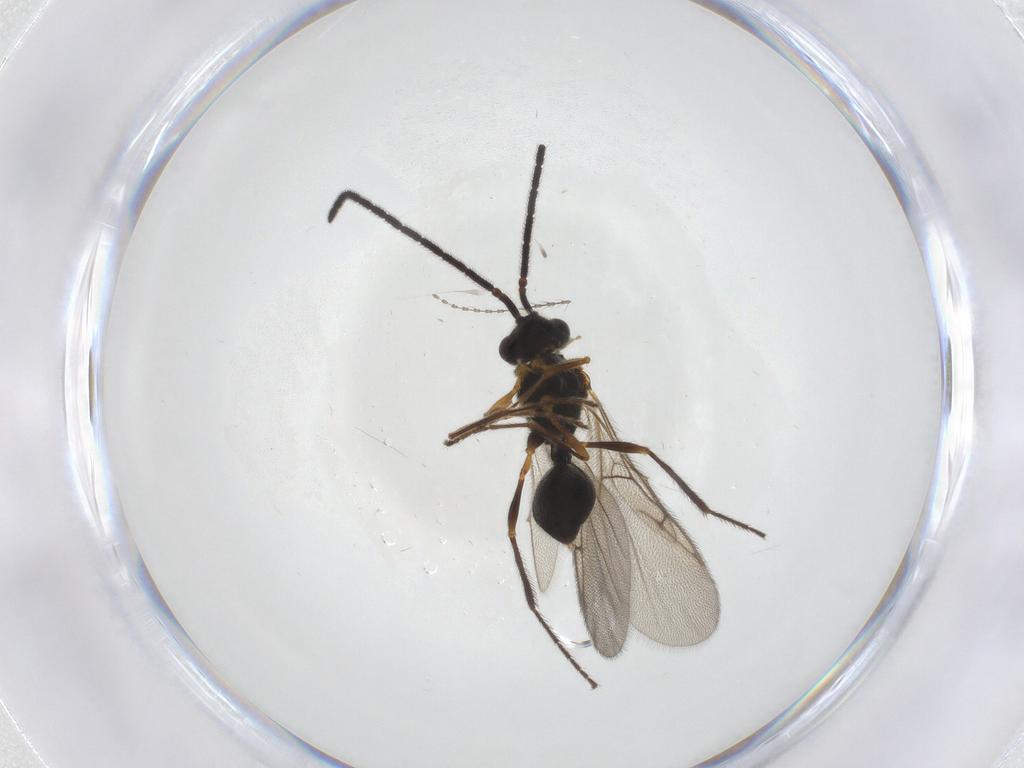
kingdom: Animalia
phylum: Arthropoda
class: Insecta
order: Hymenoptera
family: Diapriidae
